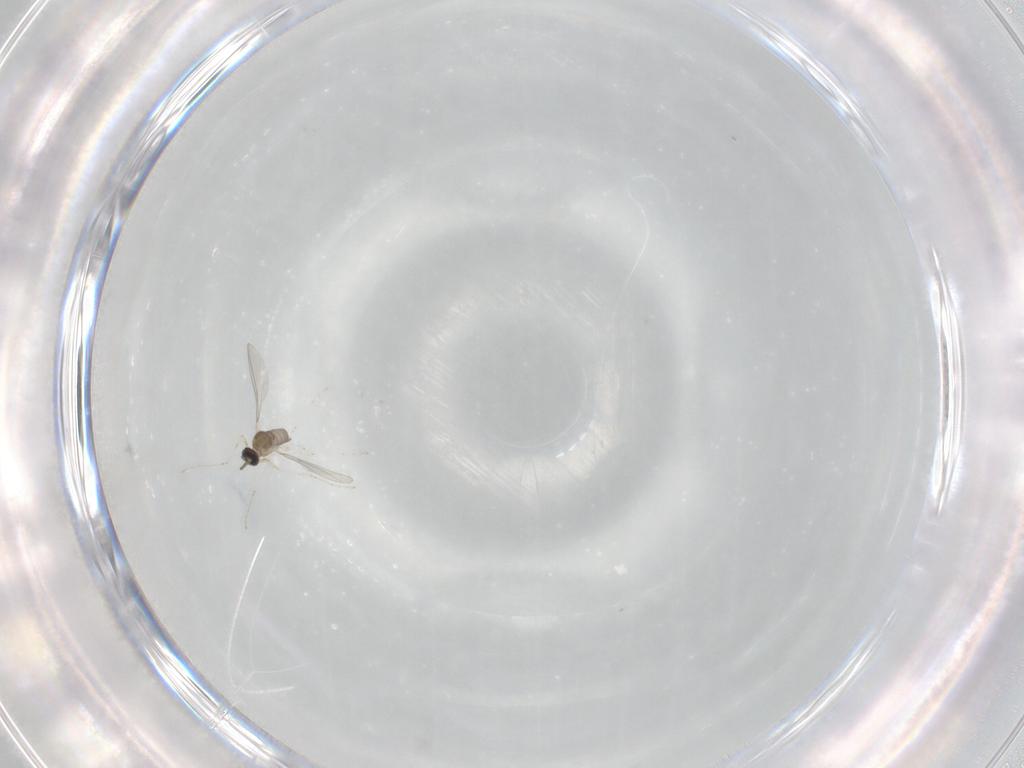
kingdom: Animalia
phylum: Arthropoda
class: Insecta
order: Diptera
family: Cecidomyiidae
